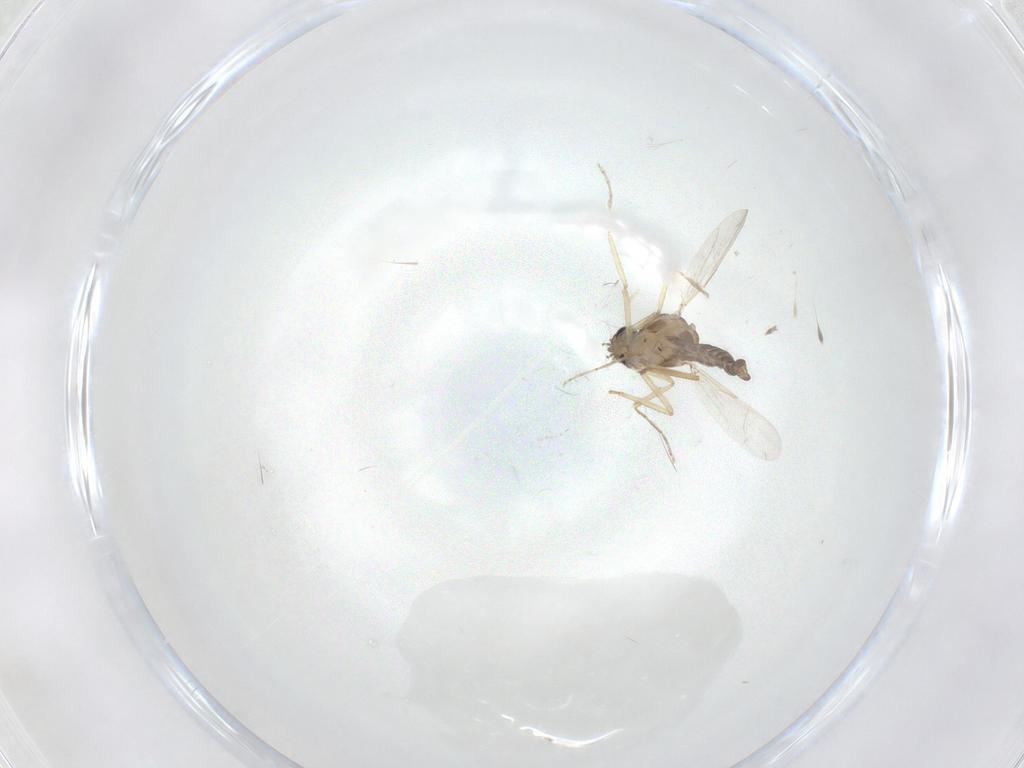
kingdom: Animalia
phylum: Arthropoda
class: Insecta
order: Diptera
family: Ceratopogonidae
